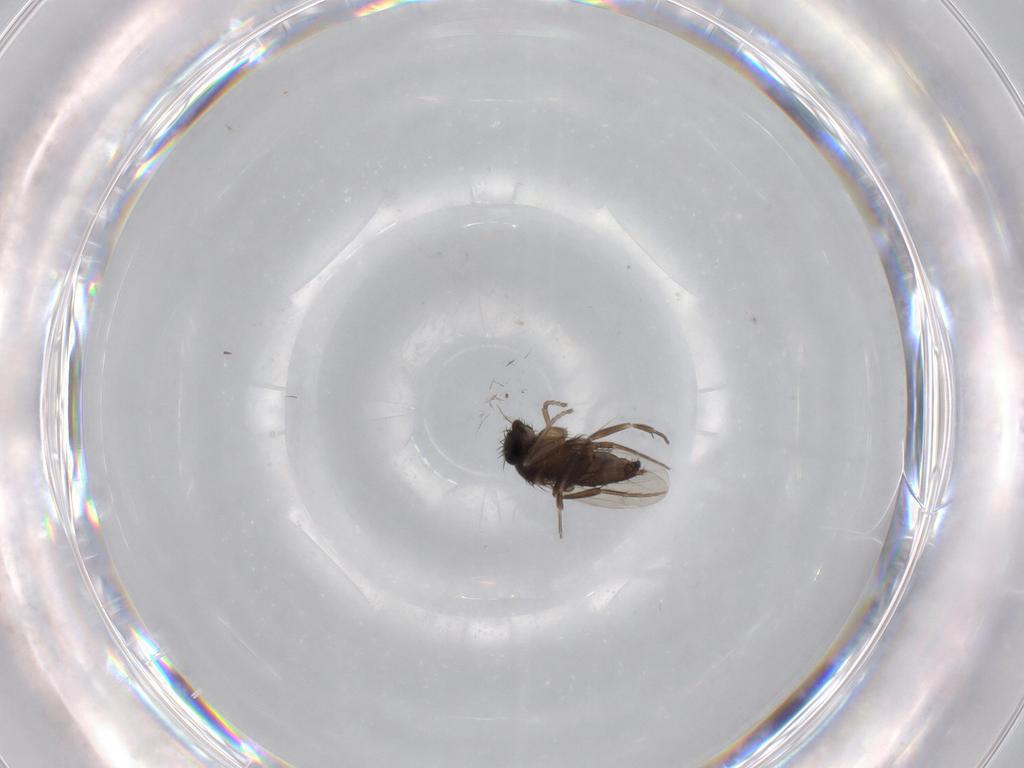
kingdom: Animalia
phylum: Arthropoda
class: Insecta
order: Diptera
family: Phoridae
